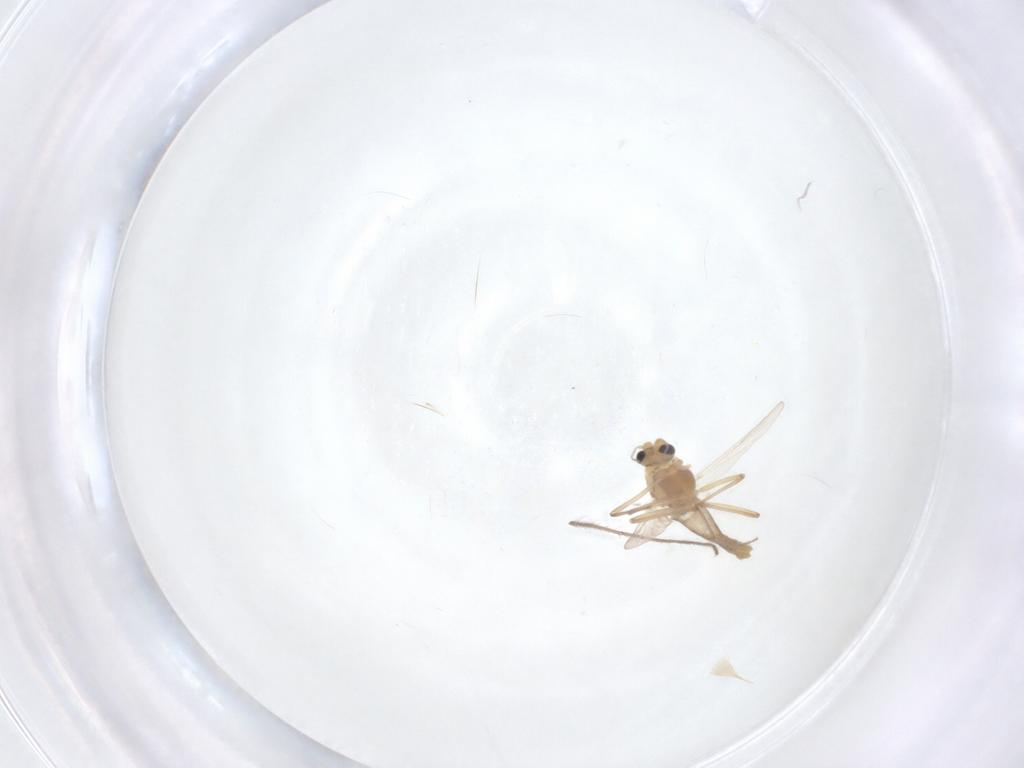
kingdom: Animalia
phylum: Arthropoda
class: Insecta
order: Diptera
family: Chironomidae
